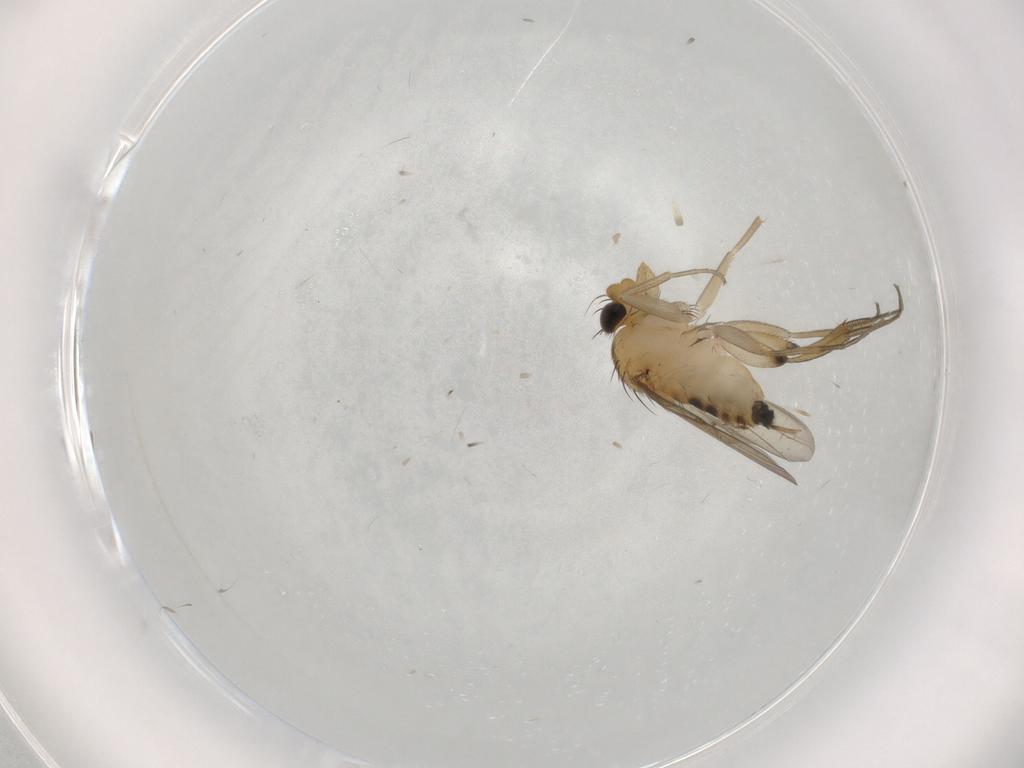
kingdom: Animalia
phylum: Arthropoda
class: Insecta
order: Diptera
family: Phoridae
